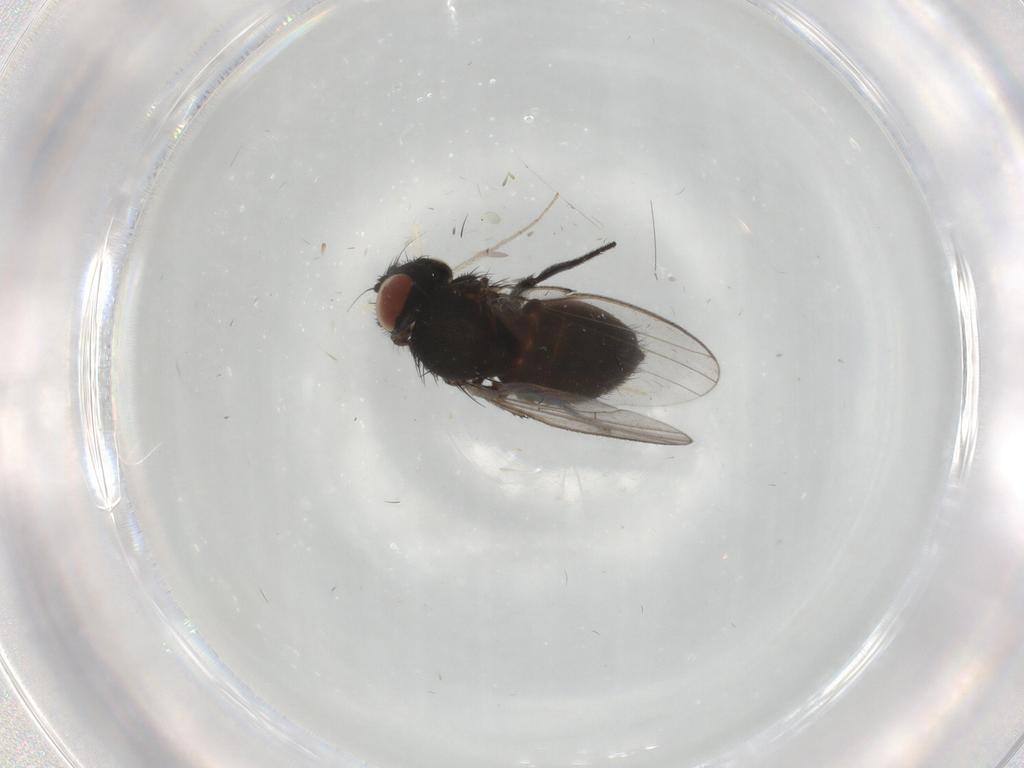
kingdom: Animalia
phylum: Arthropoda
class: Insecta
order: Diptera
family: Milichiidae
